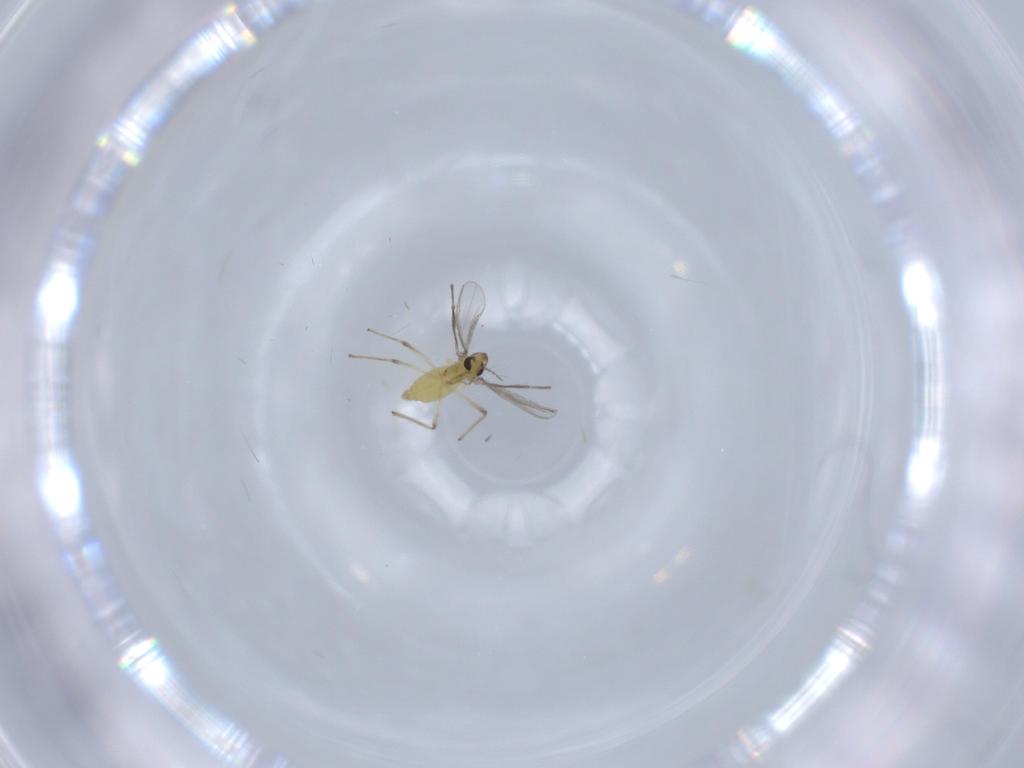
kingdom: Animalia
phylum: Arthropoda
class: Insecta
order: Diptera
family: Chironomidae
